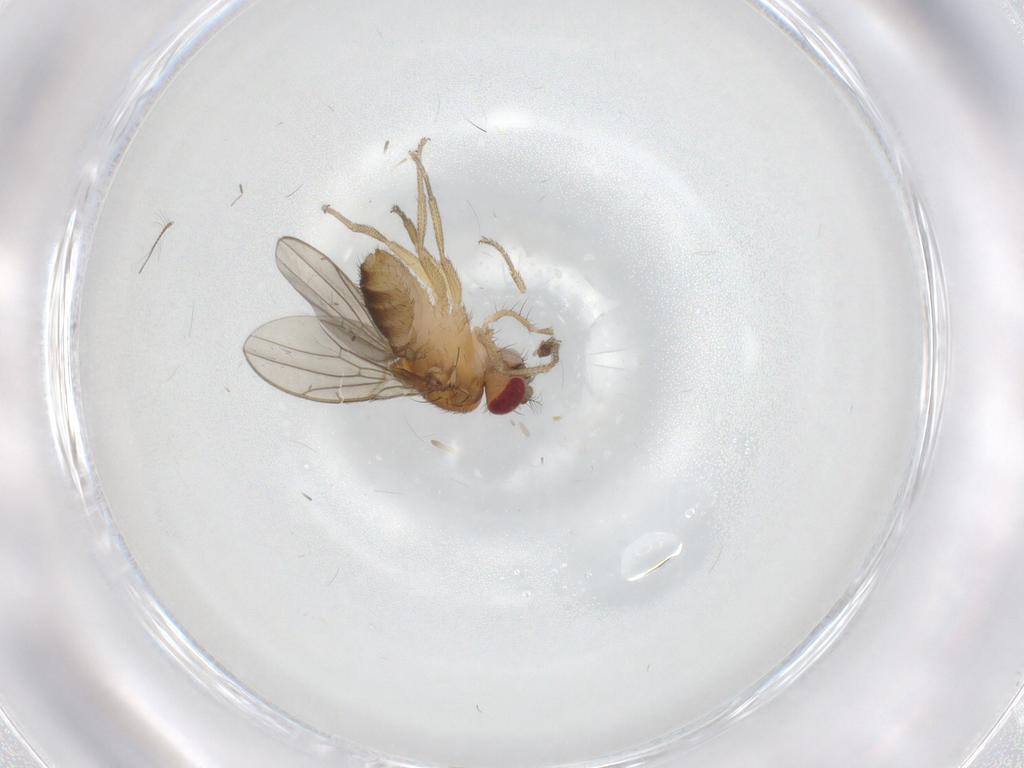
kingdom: Animalia
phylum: Arthropoda
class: Insecta
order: Diptera
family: Drosophilidae
